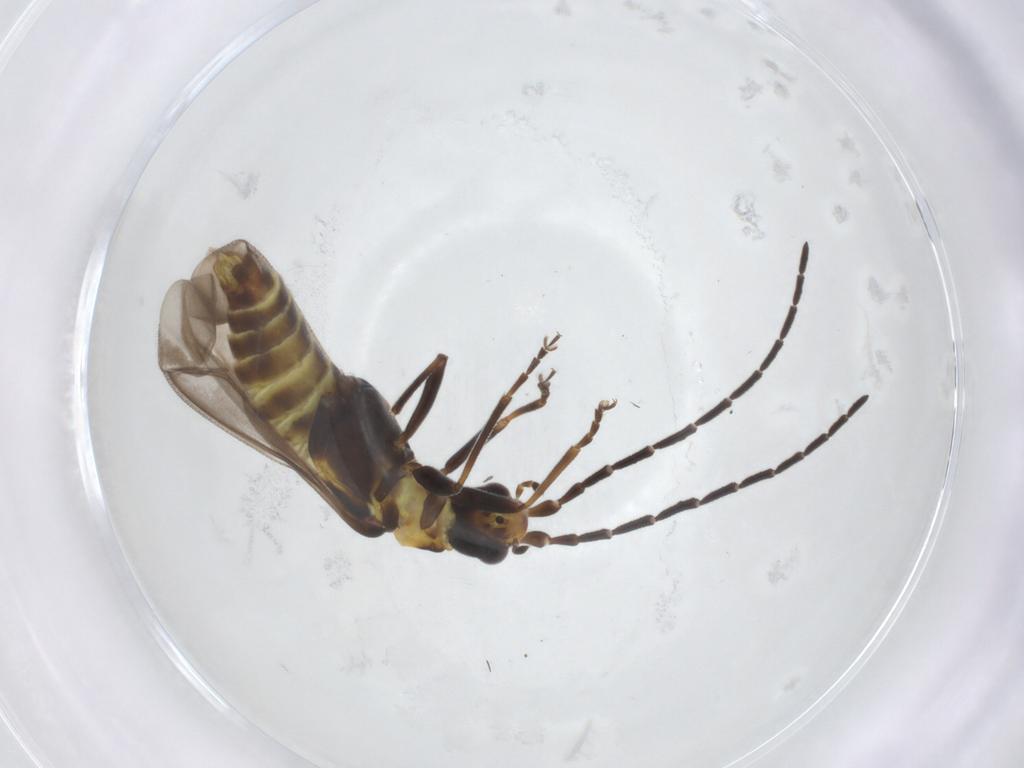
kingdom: Animalia
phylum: Arthropoda
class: Insecta
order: Coleoptera
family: Cantharidae
